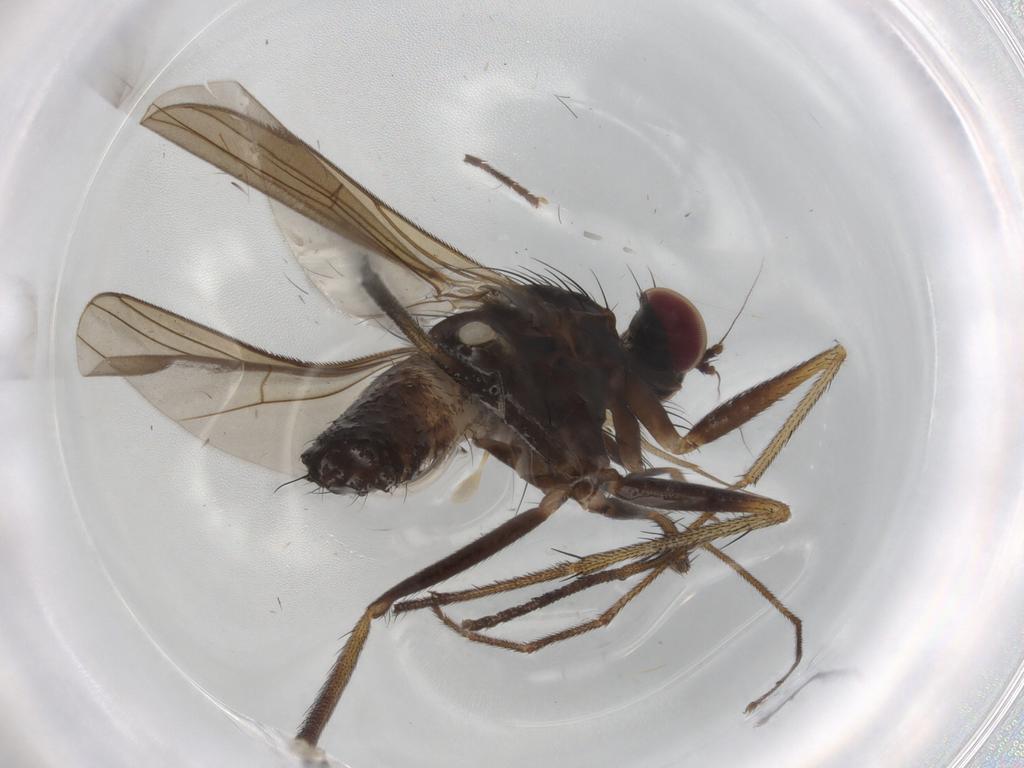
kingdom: Animalia
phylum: Arthropoda
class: Insecta
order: Diptera
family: Dolichopodidae
